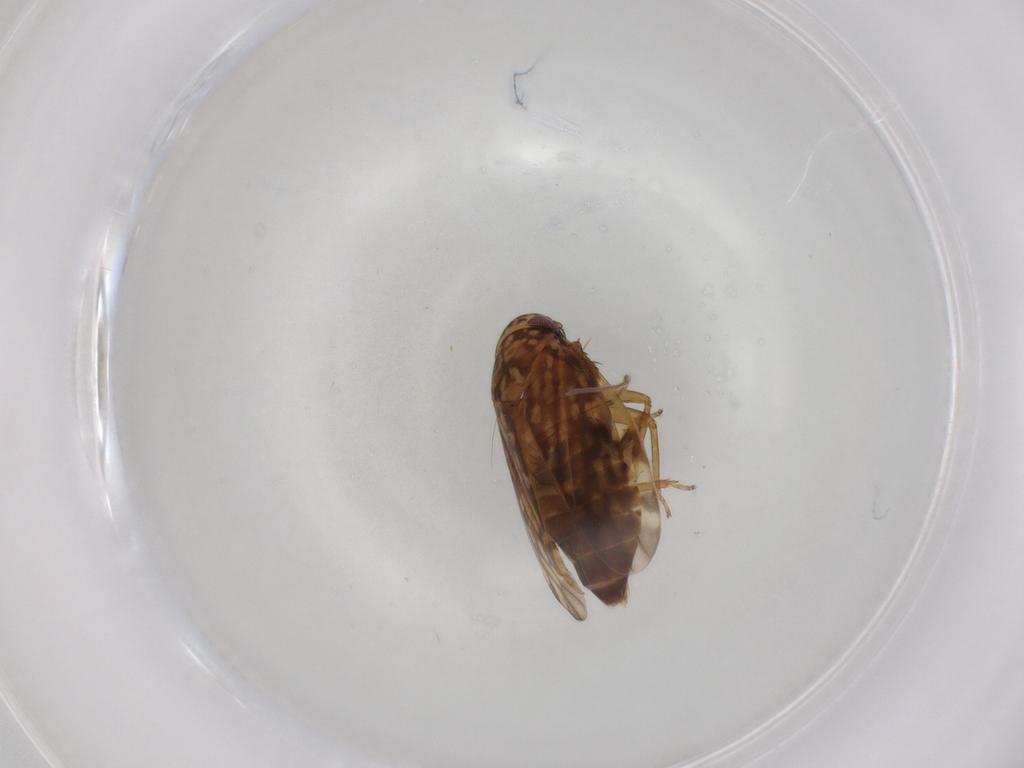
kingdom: Animalia
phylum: Arthropoda
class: Insecta
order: Hemiptera
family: Cicadellidae
